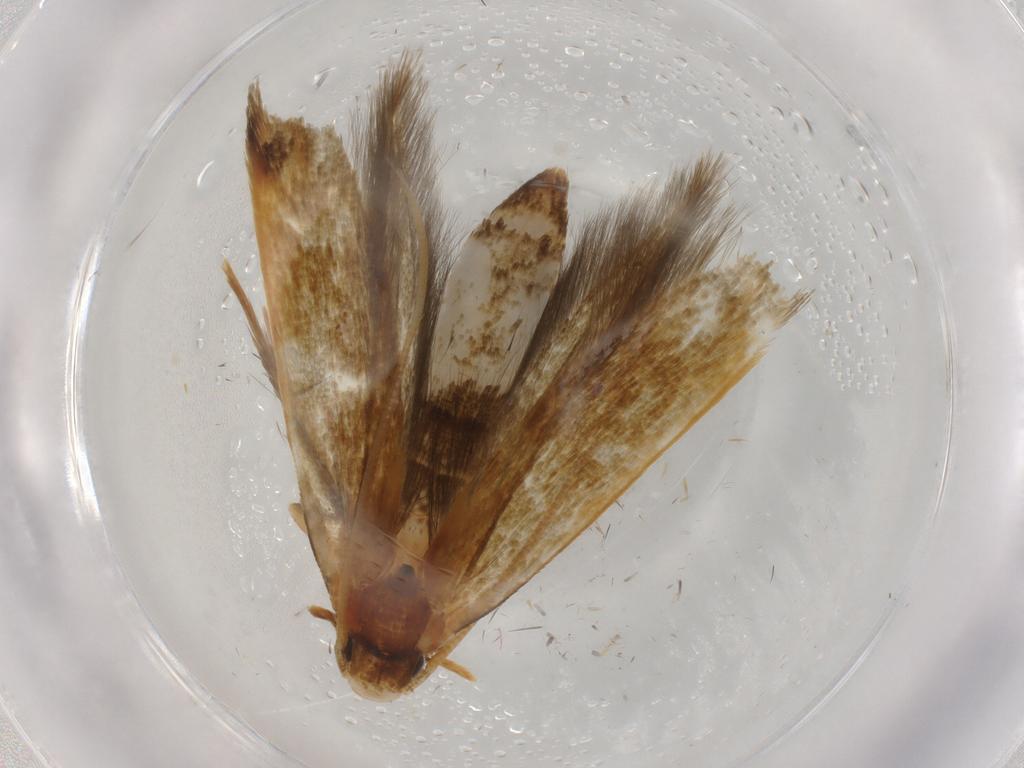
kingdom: Animalia
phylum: Arthropoda
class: Insecta
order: Lepidoptera
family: Tineidae
